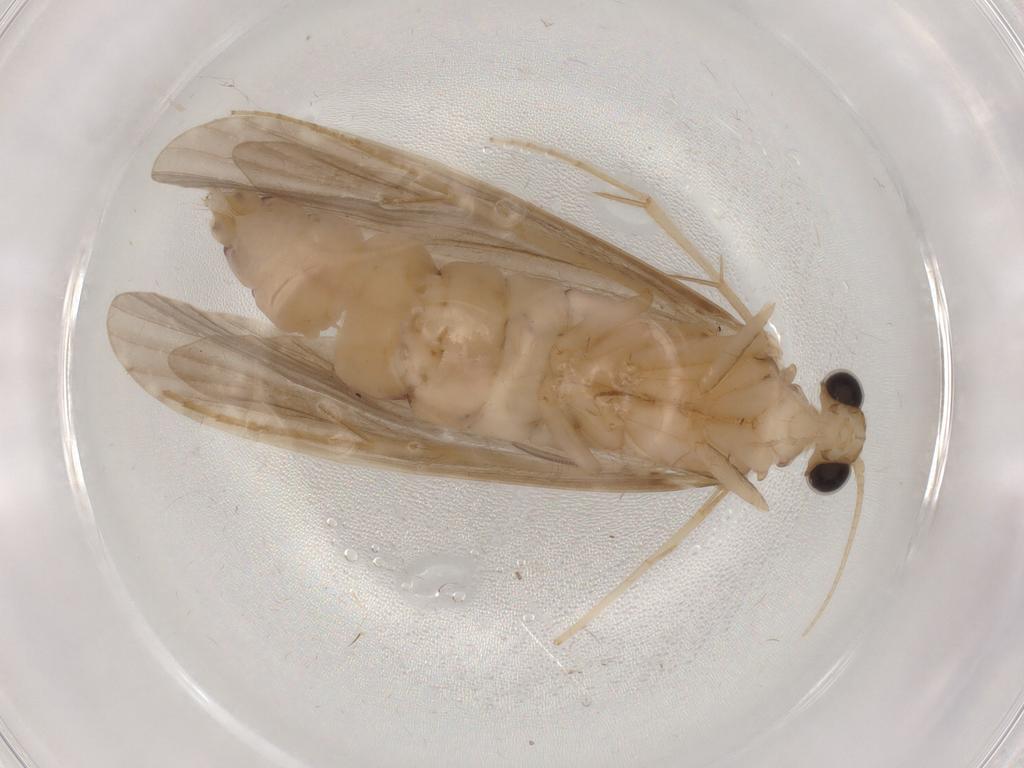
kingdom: Animalia
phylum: Arthropoda
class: Insecta
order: Trichoptera
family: Ecnomidae
